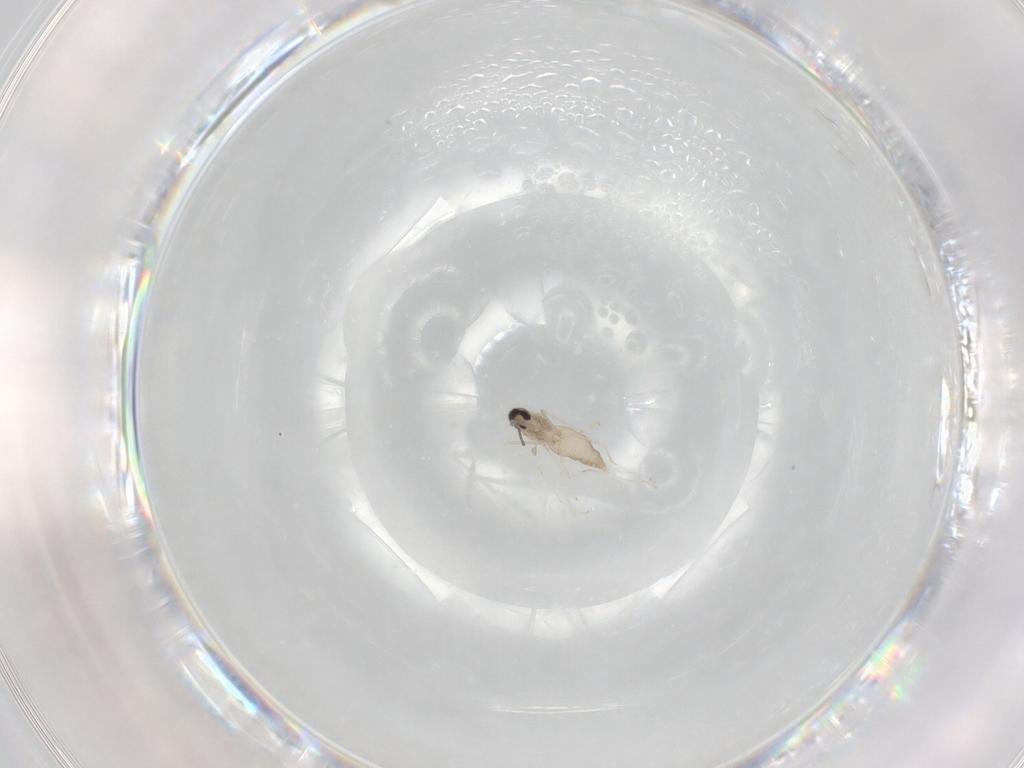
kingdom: Animalia
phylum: Arthropoda
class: Insecta
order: Diptera
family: Cecidomyiidae
